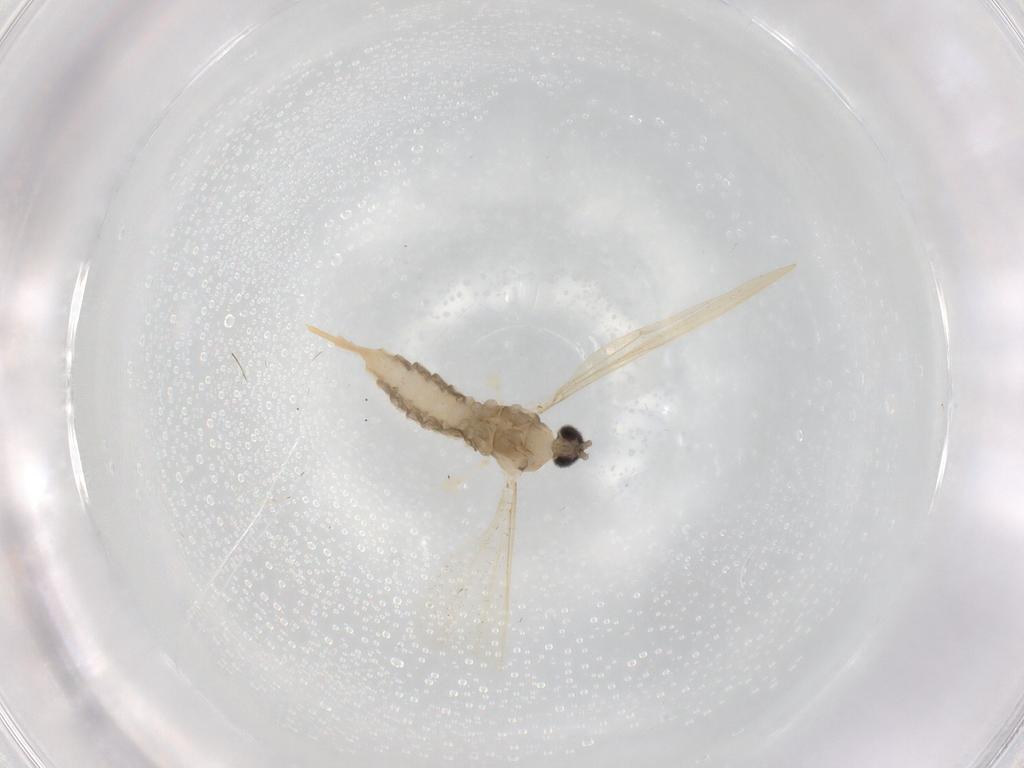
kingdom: Animalia
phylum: Arthropoda
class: Insecta
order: Diptera
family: Cecidomyiidae
